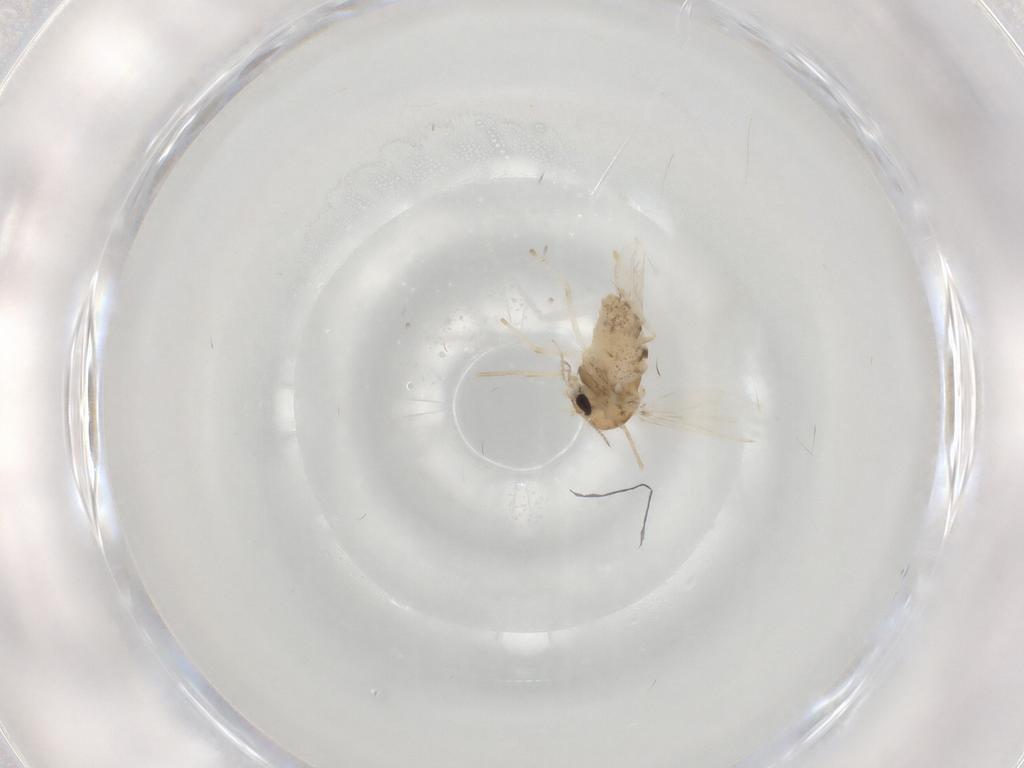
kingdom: Animalia
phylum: Arthropoda
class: Insecta
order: Diptera
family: Chironomidae
